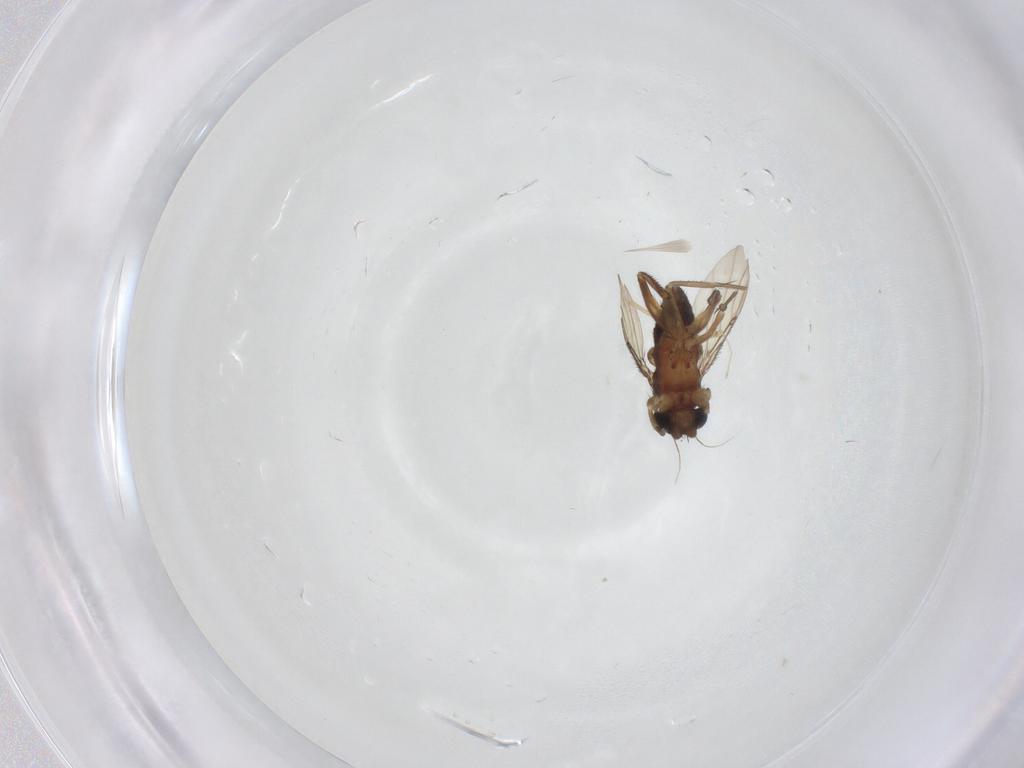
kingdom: Animalia
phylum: Arthropoda
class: Insecta
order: Diptera
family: Phoridae
